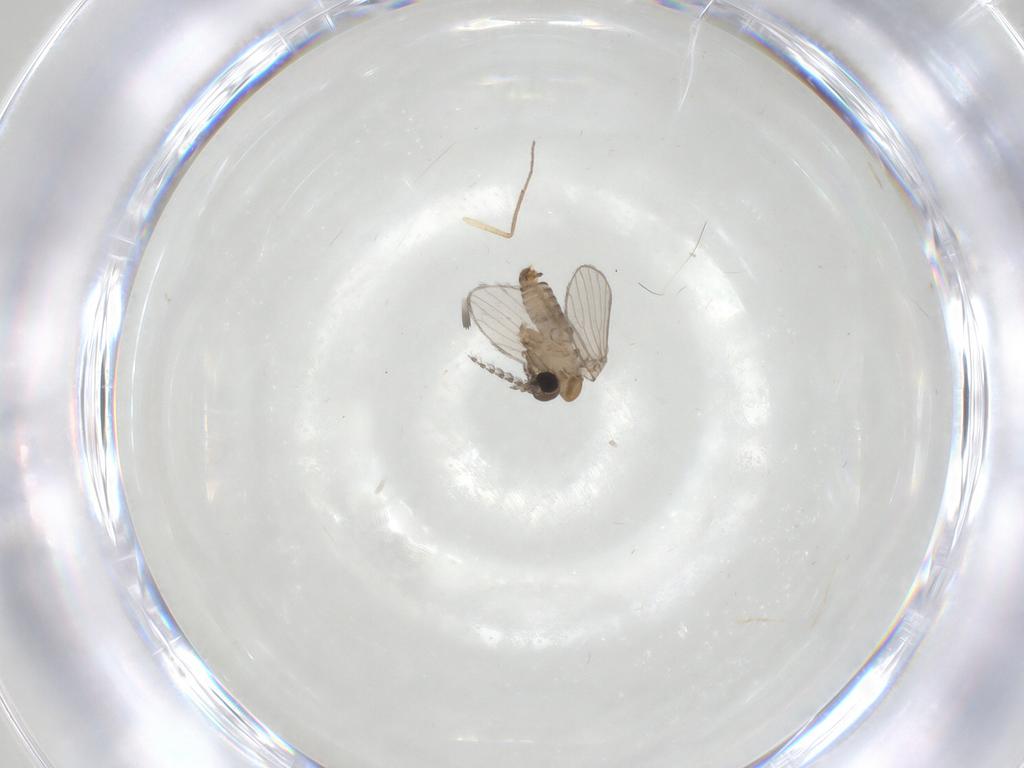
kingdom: Animalia
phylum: Arthropoda
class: Insecta
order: Diptera
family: Chironomidae
